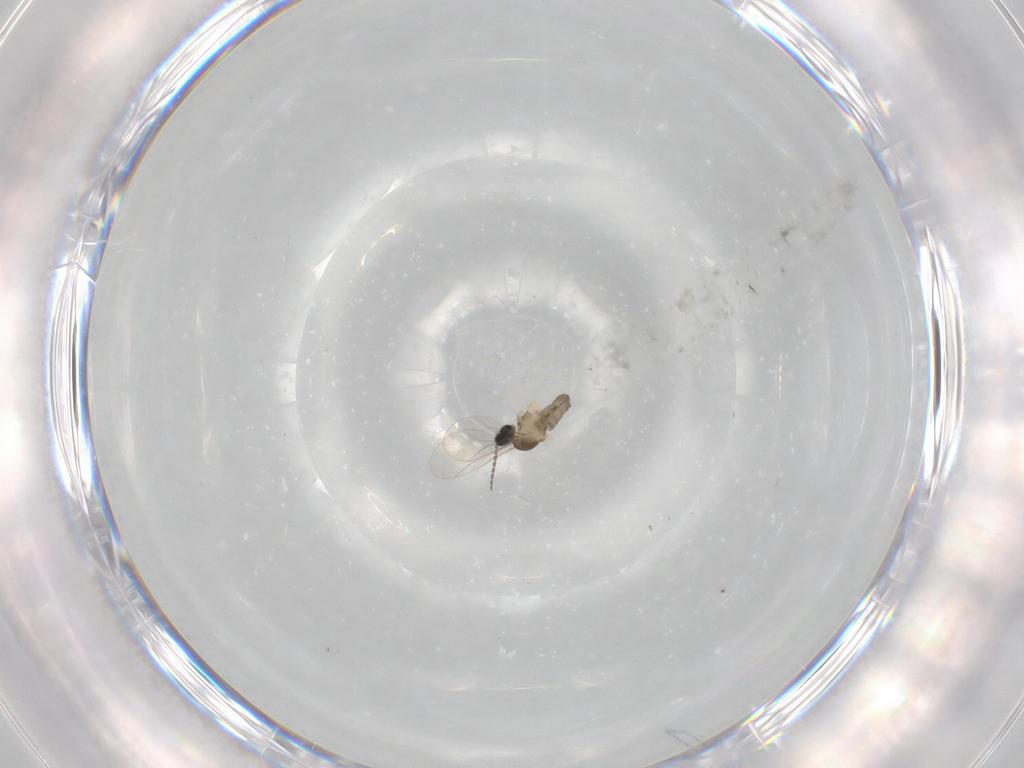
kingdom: Animalia
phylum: Arthropoda
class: Insecta
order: Diptera
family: Cecidomyiidae
